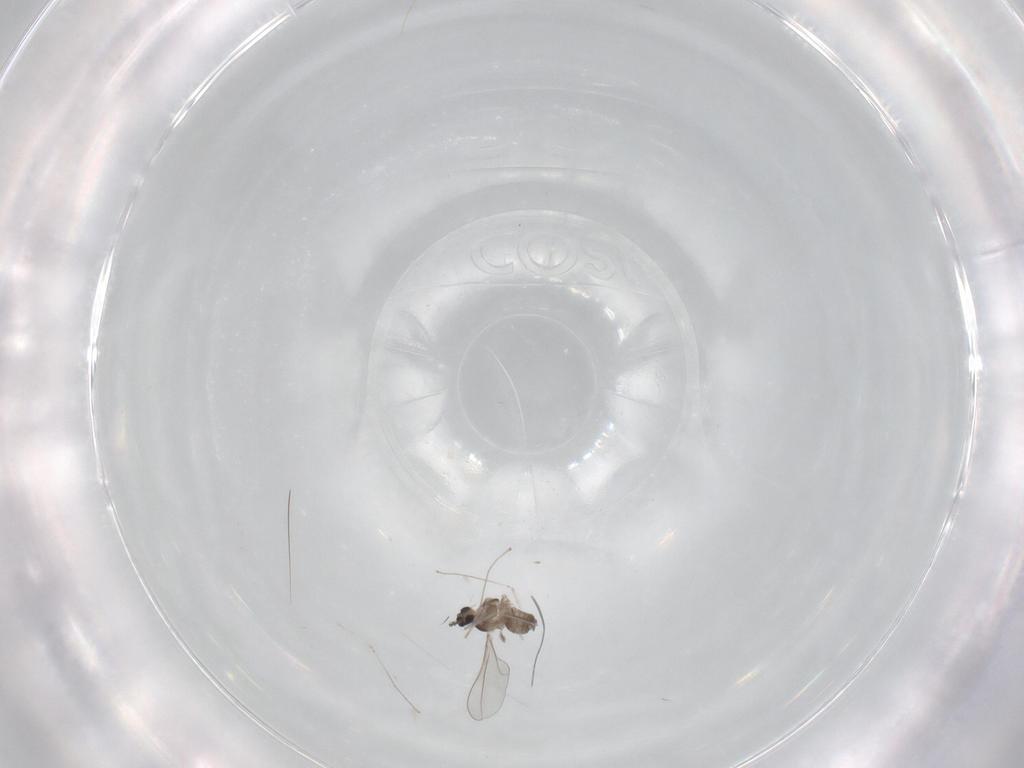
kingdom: Animalia
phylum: Arthropoda
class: Insecta
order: Diptera
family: Cecidomyiidae
